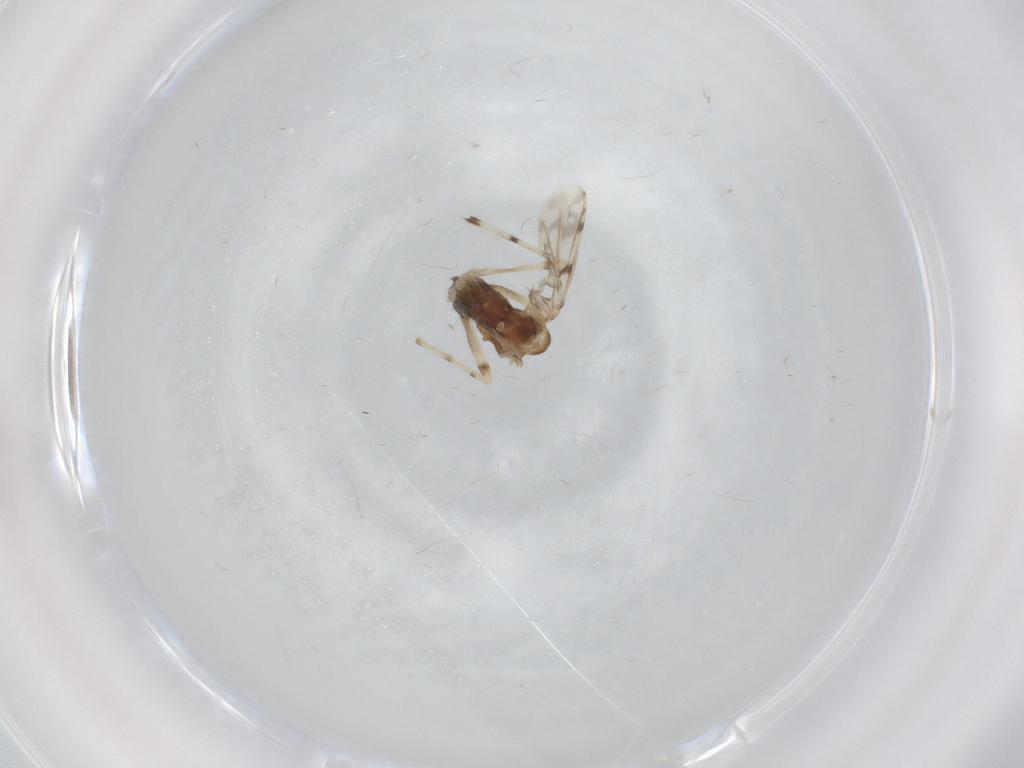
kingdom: Animalia
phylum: Arthropoda
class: Insecta
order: Diptera
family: Chironomidae
